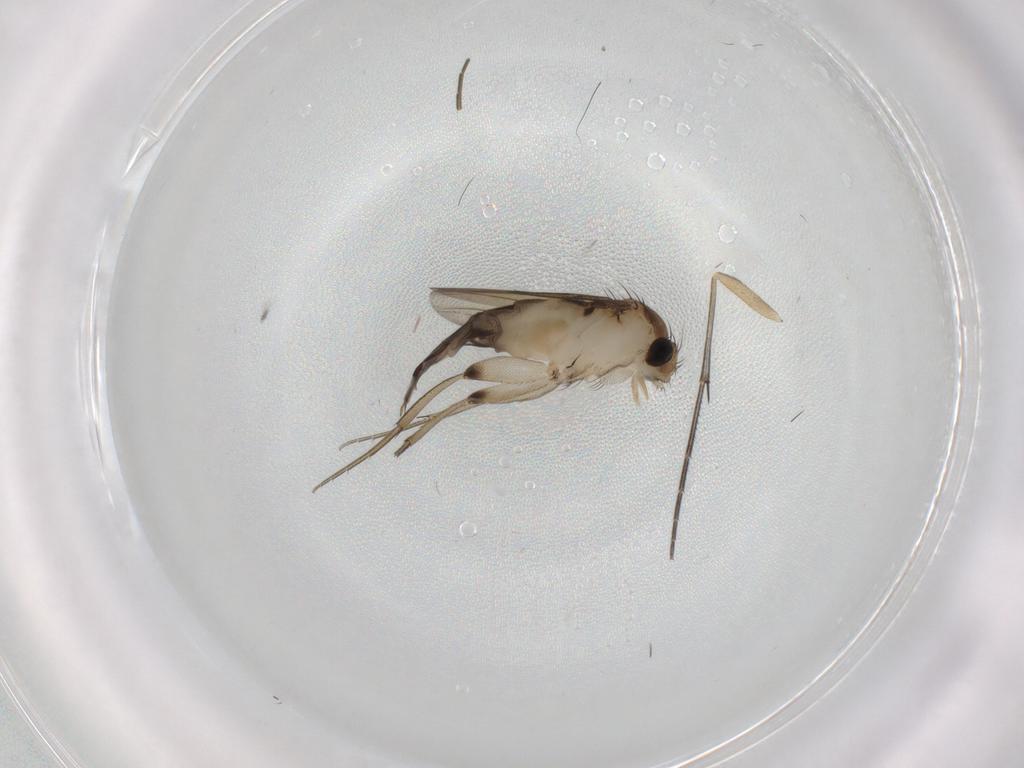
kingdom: Animalia
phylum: Arthropoda
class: Insecta
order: Diptera
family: Phoridae
